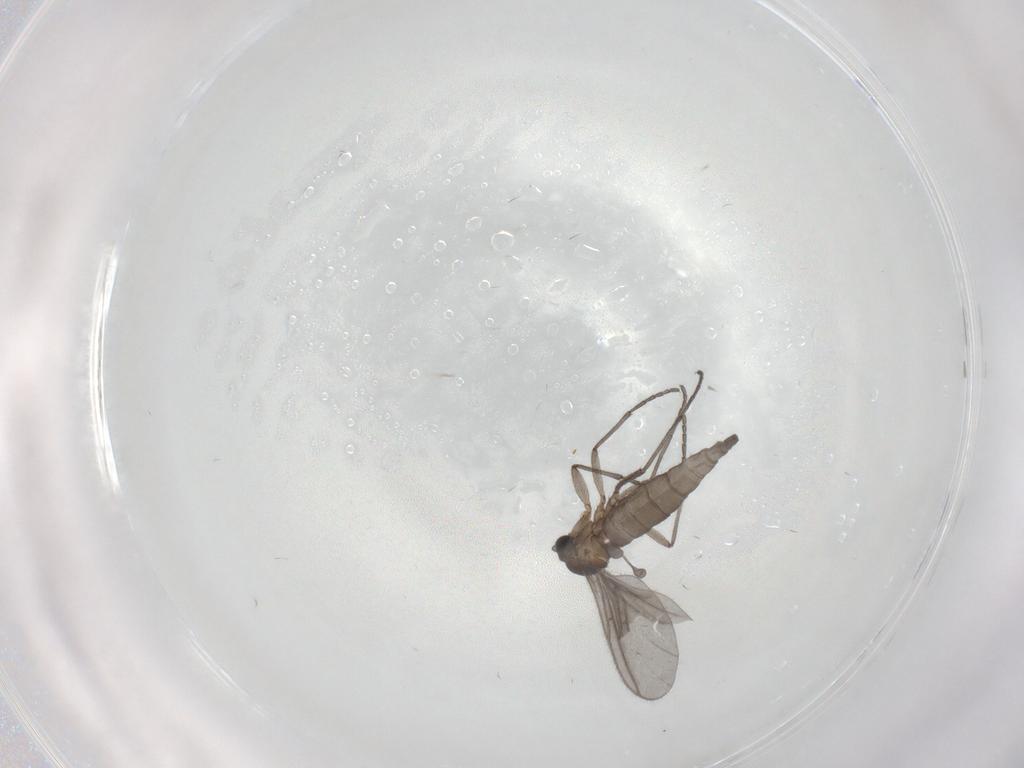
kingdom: Animalia
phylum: Arthropoda
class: Insecta
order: Diptera
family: Sciaridae
